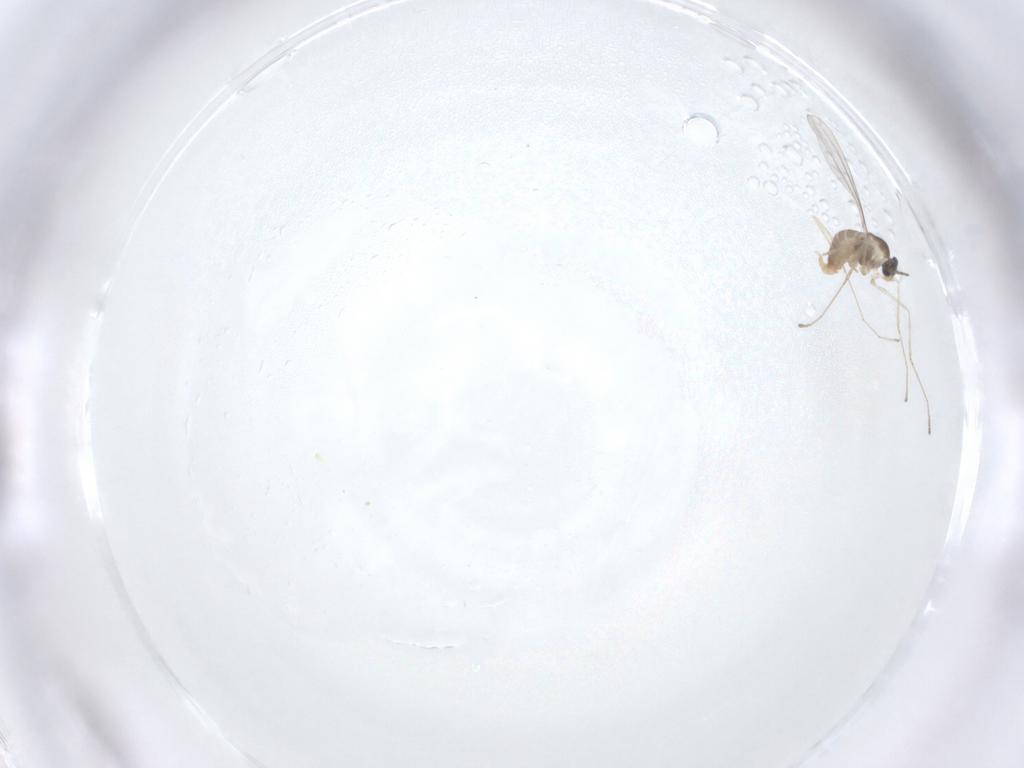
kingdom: Animalia
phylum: Arthropoda
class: Insecta
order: Diptera
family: Cecidomyiidae
